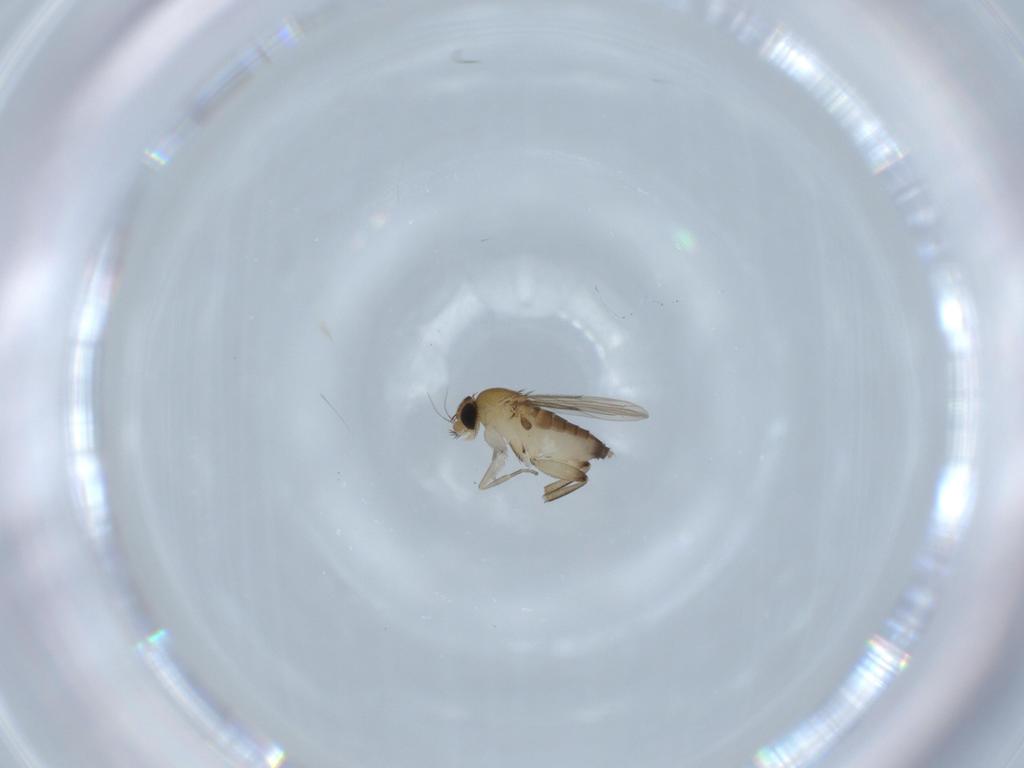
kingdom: Animalia
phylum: Arthropoda
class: Insecta
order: Diptera
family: Phoridae
